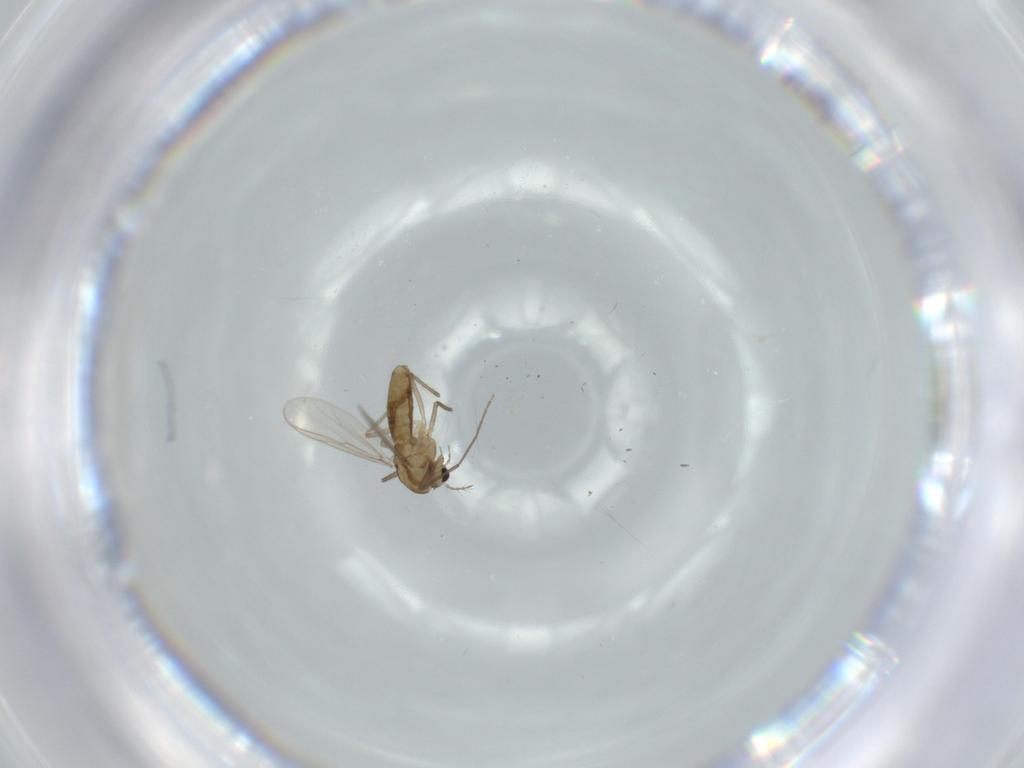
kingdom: Animalia
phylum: Arthropoda
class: Insecta
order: Diptera
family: Chironomidae
